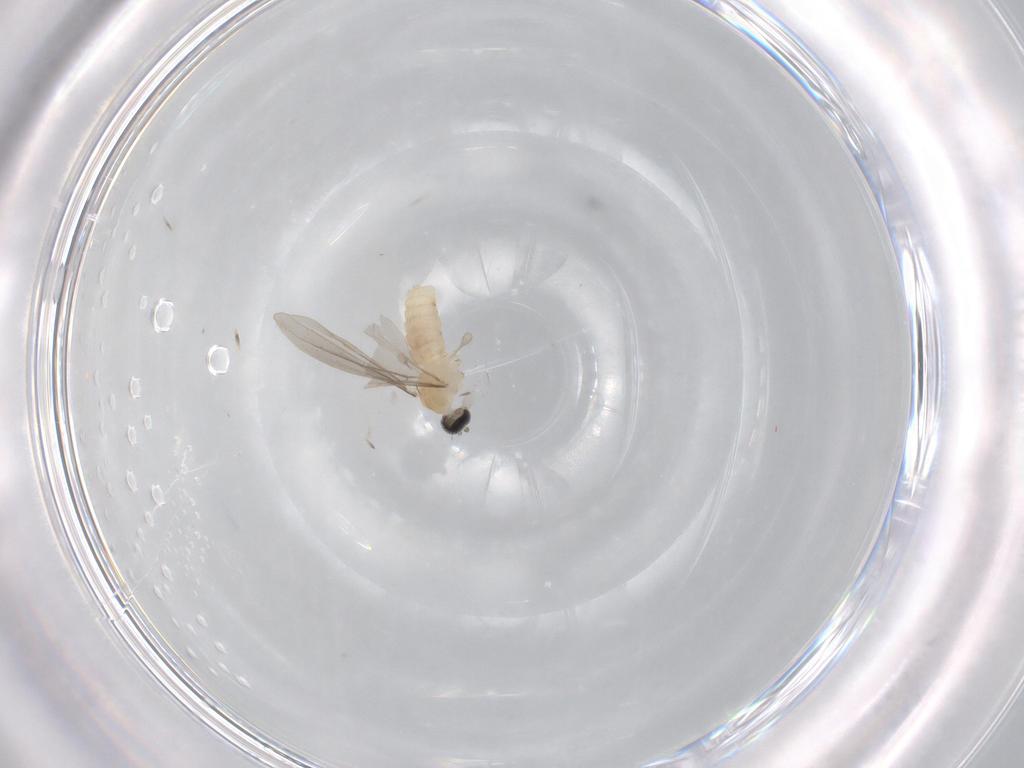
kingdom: Animalia
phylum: Arthropoda
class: Insecta
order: Diptera
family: Cecidomyiidae
